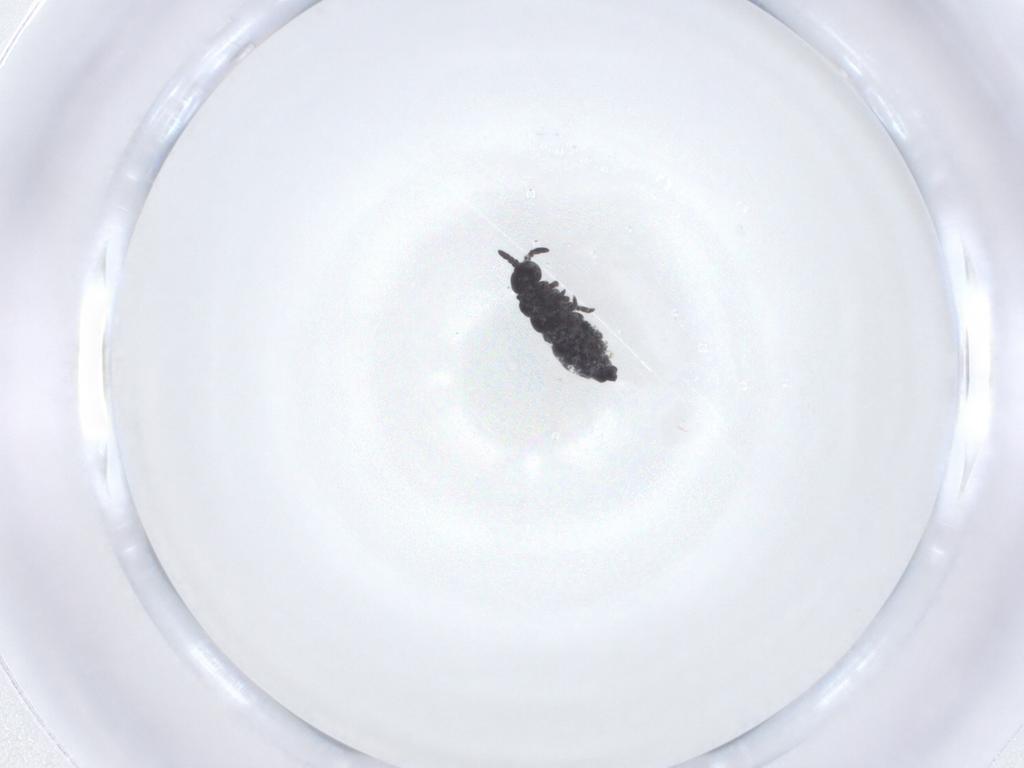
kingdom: Animalia
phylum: Arthropoda
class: Collembola
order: Poduromorpha
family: Hypogastruridae
